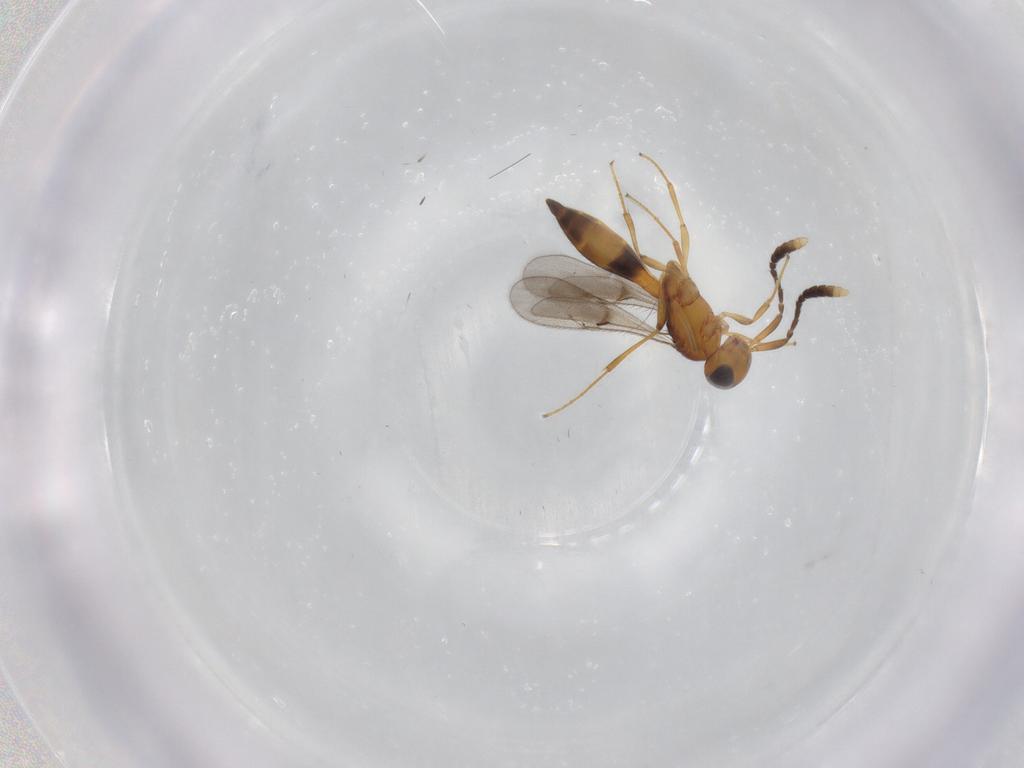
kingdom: Animalia
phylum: Arthropoda
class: Insecta
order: Hymenoptera
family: Scelionidae
